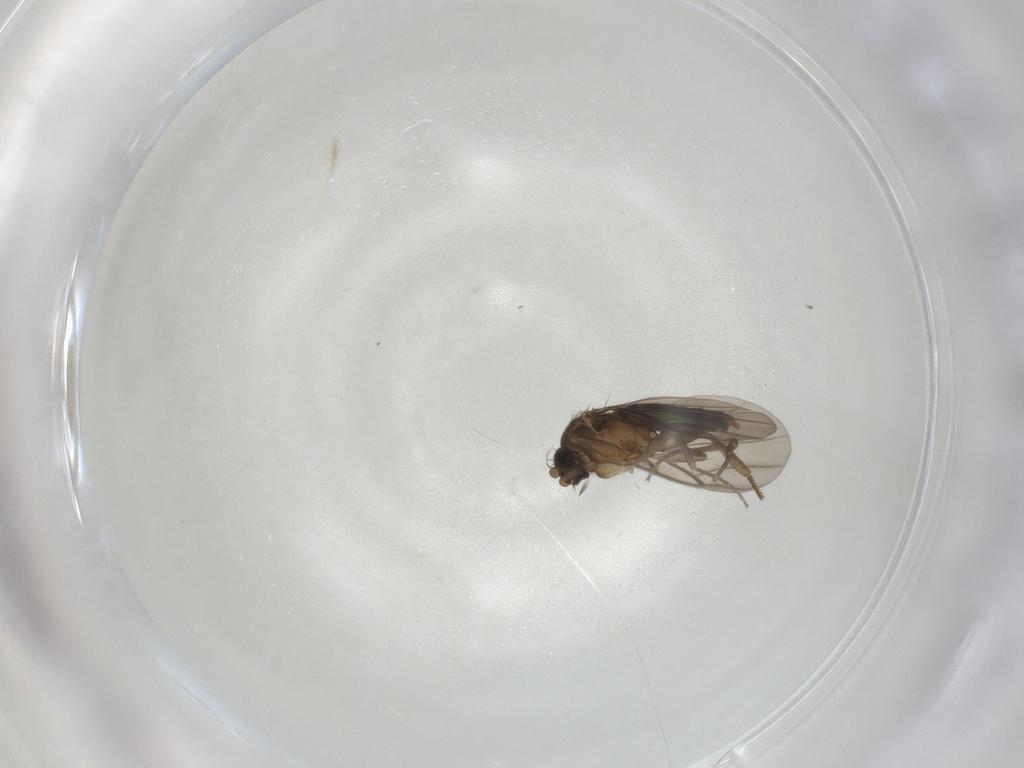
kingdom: Animalia
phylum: Arthropoda
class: Insecta
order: Diptera
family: Phoridae
